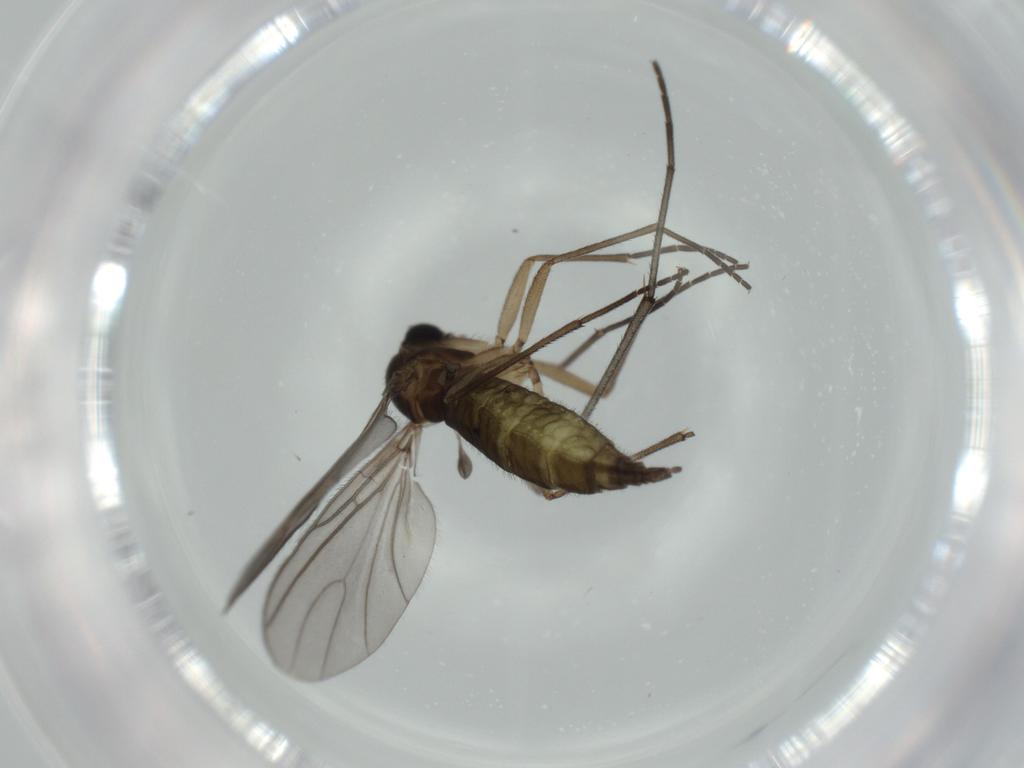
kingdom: Animalia
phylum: Arthropoda
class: Insecta
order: Diptera
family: Sciaridae
